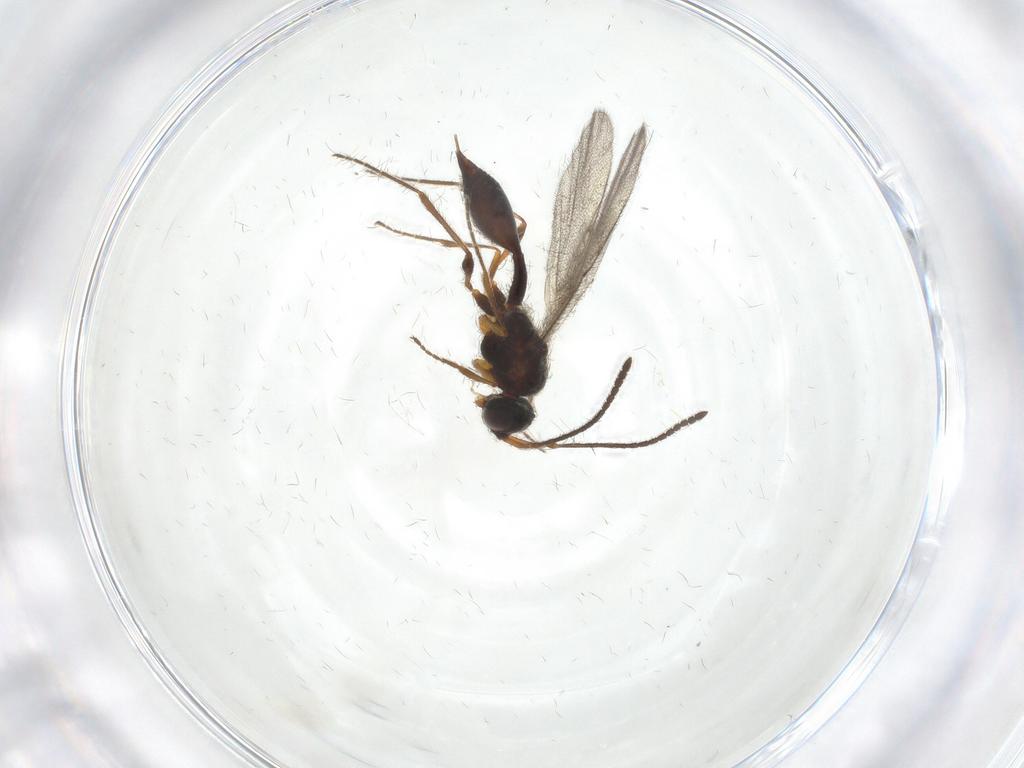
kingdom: Animalia
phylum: Arthropoda
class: Insecta
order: Hymenoptera
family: Diapriidae
